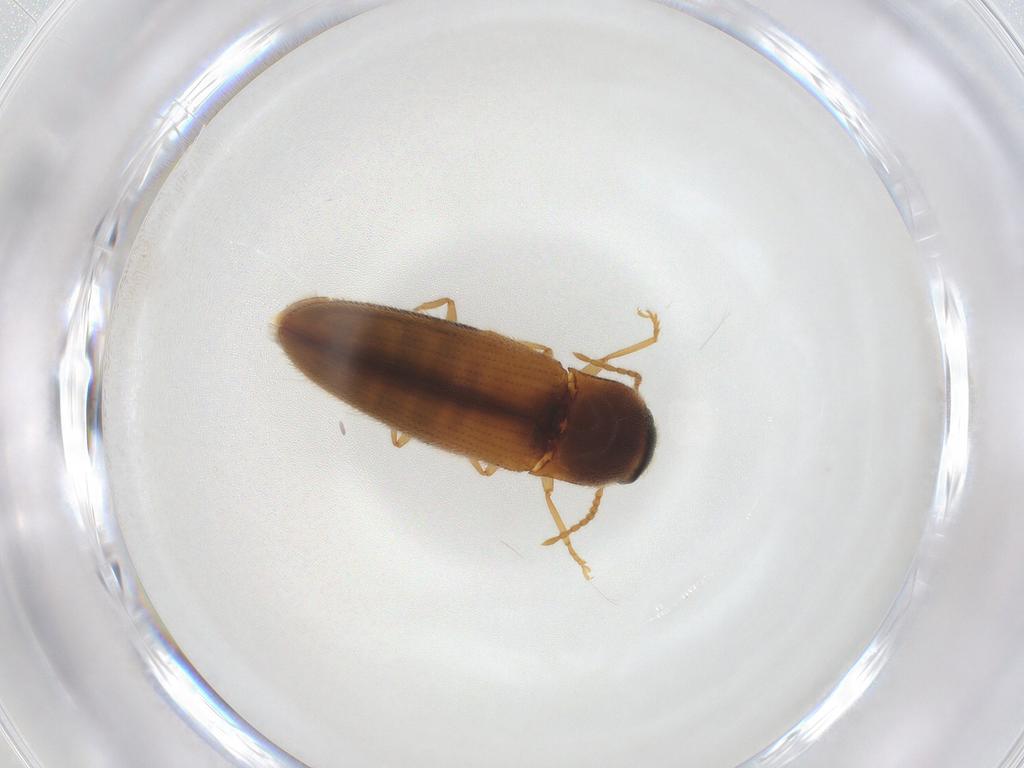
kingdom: Animalia
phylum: Arthropoda
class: Insecta
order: Coleoptera
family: Elateridae
